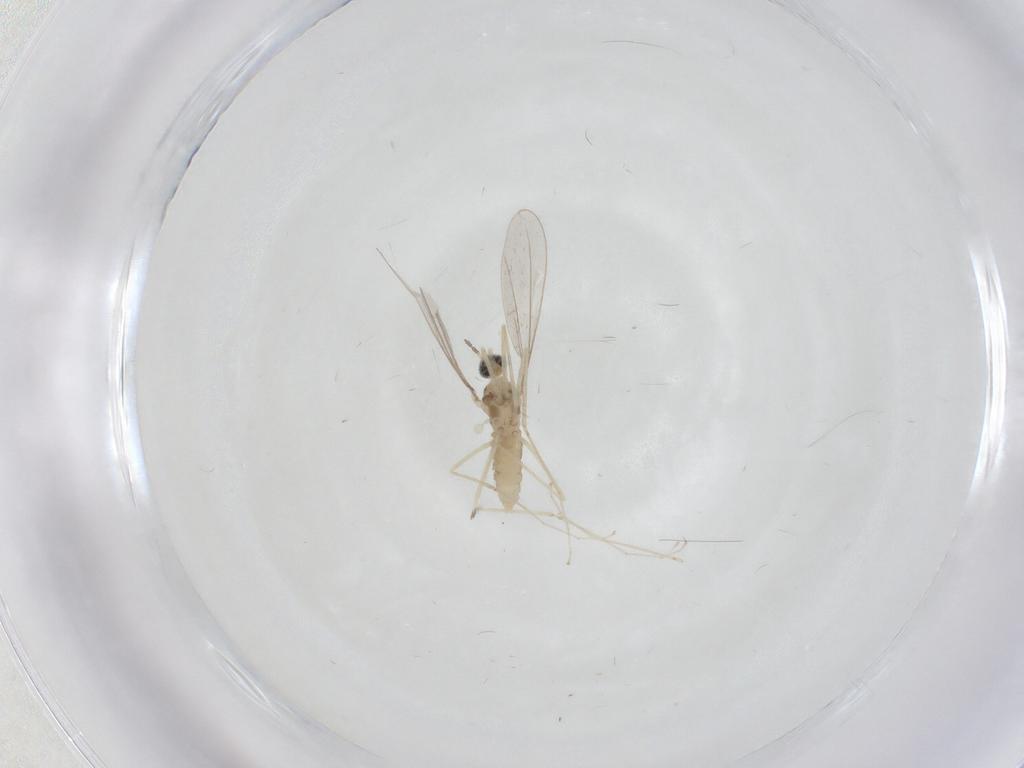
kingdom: Animalia
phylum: Arthropoda
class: Insecta
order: Diptera
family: Cecidomyiidae
